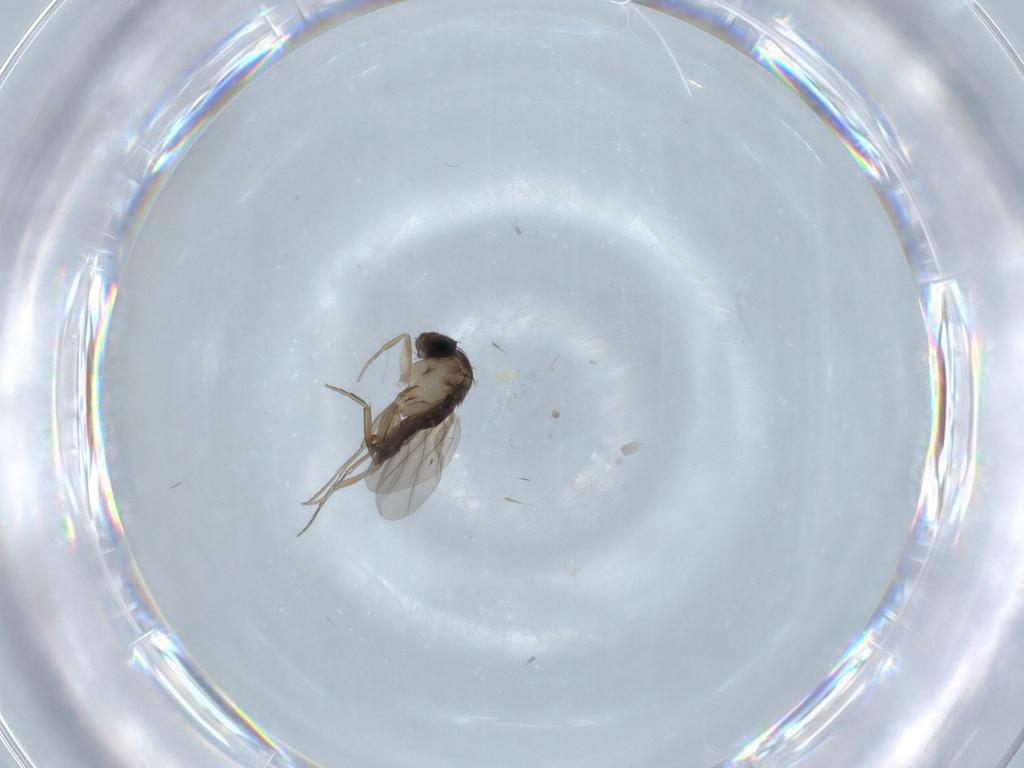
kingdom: Animalia
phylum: Arthropoda
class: Insecta
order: Diptera
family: Phoridae
